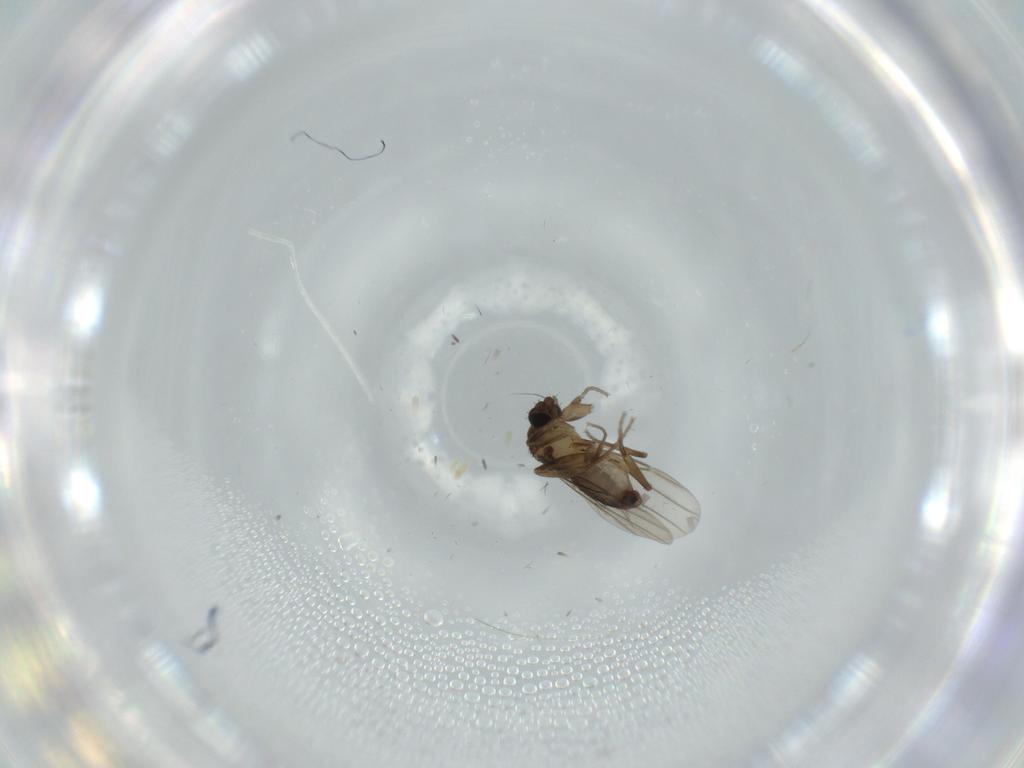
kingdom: Animalia
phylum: Arthropoda
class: Insecta
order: Diptera
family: Phoridae
